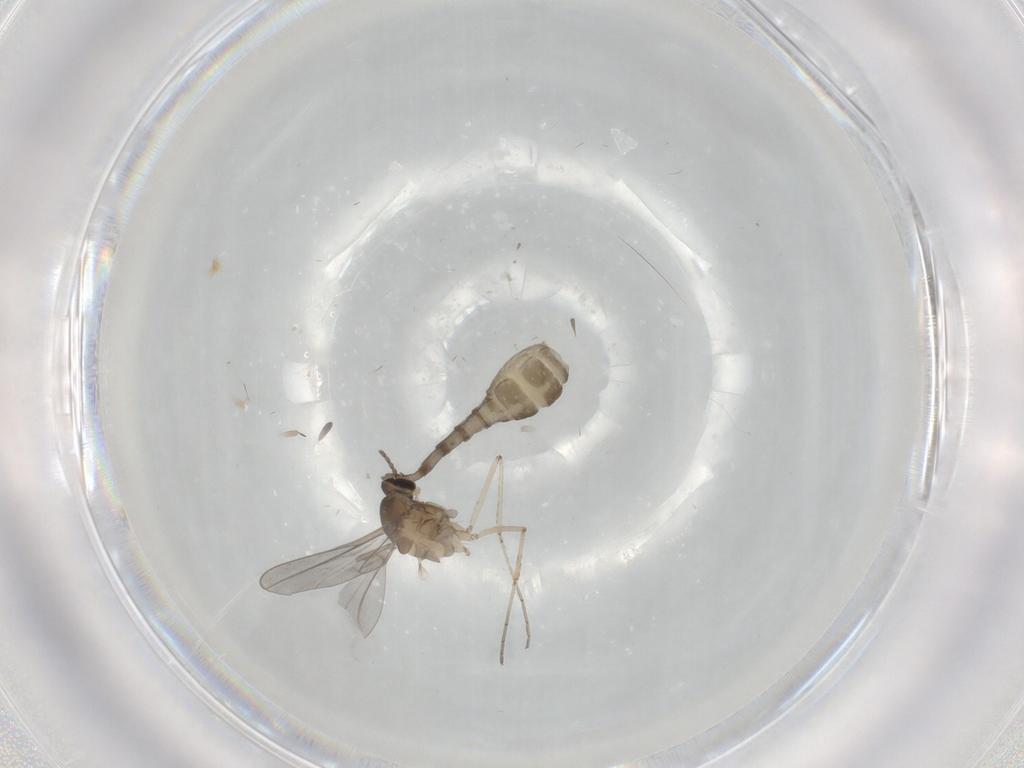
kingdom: Animalia
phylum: Arthropoda
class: Insecta
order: Diptera
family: Cecidomyiidae
